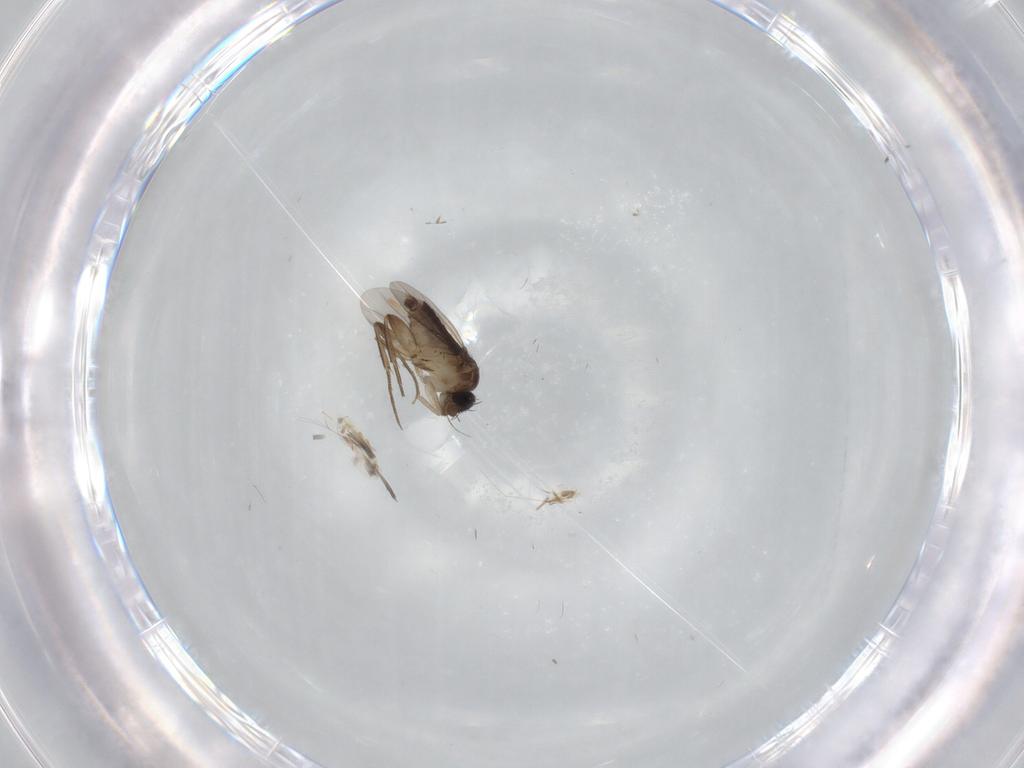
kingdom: Animalia
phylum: Arthropoda
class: Insecta
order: Diptera
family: Phoridae
